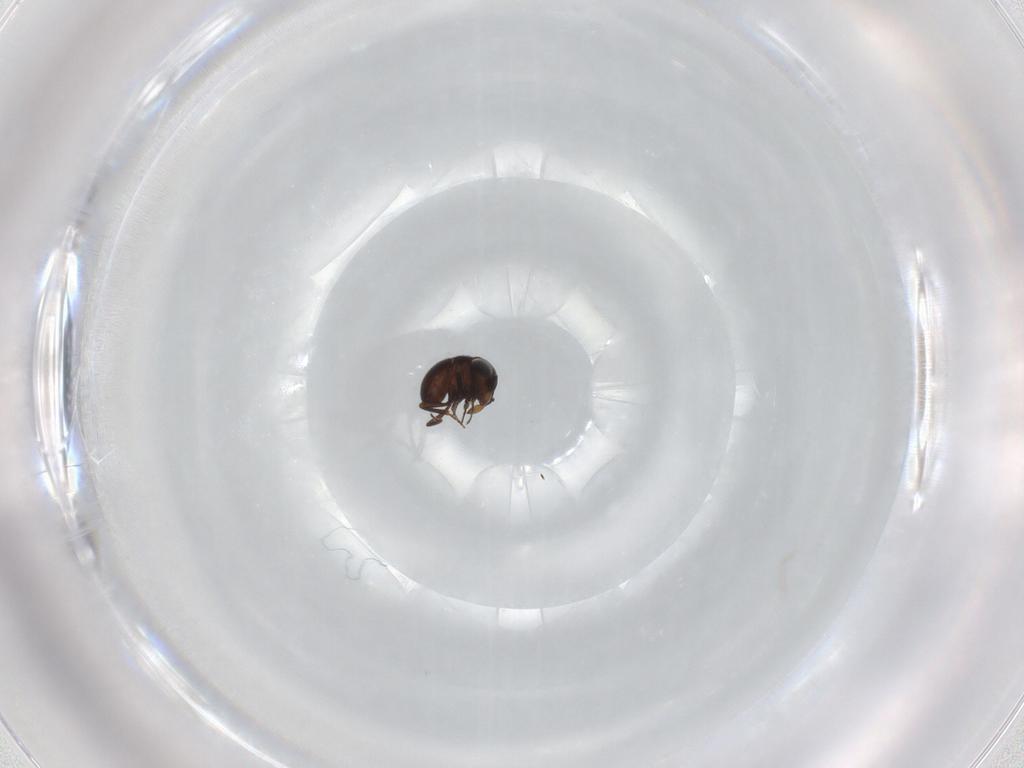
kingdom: Animalia
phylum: Arthropoda
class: Insecta
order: Hymenoptera
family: Scelionidae
